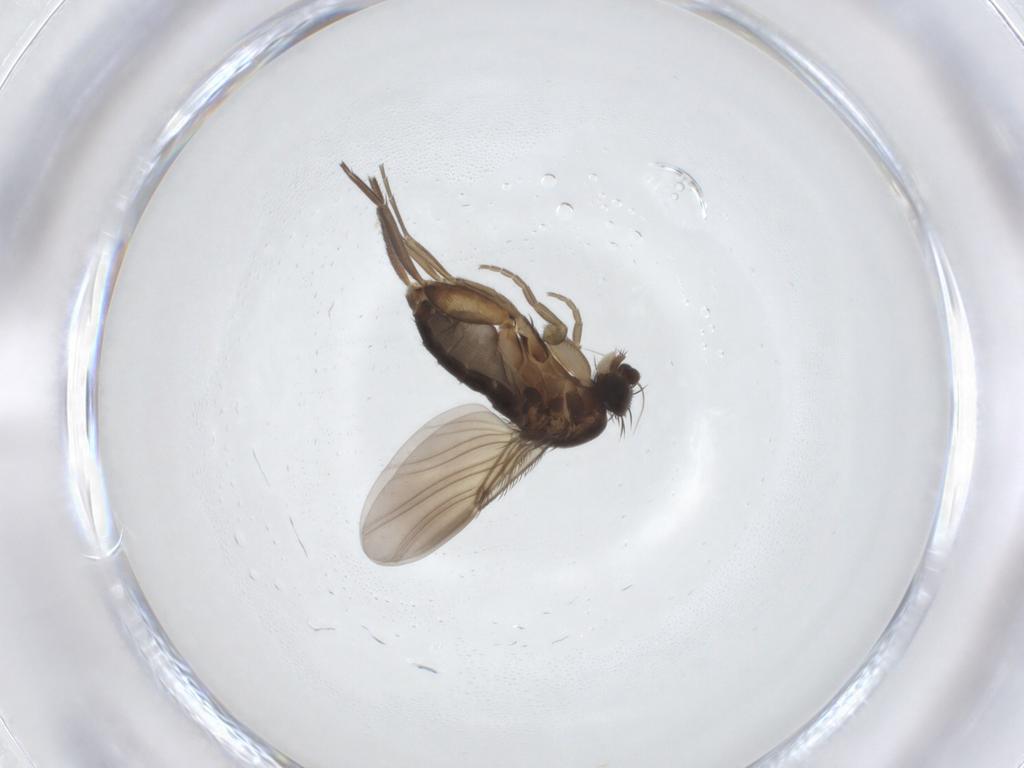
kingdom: Animalia
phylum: Arthropoda
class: Insecta
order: Diptera
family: Phoridae
